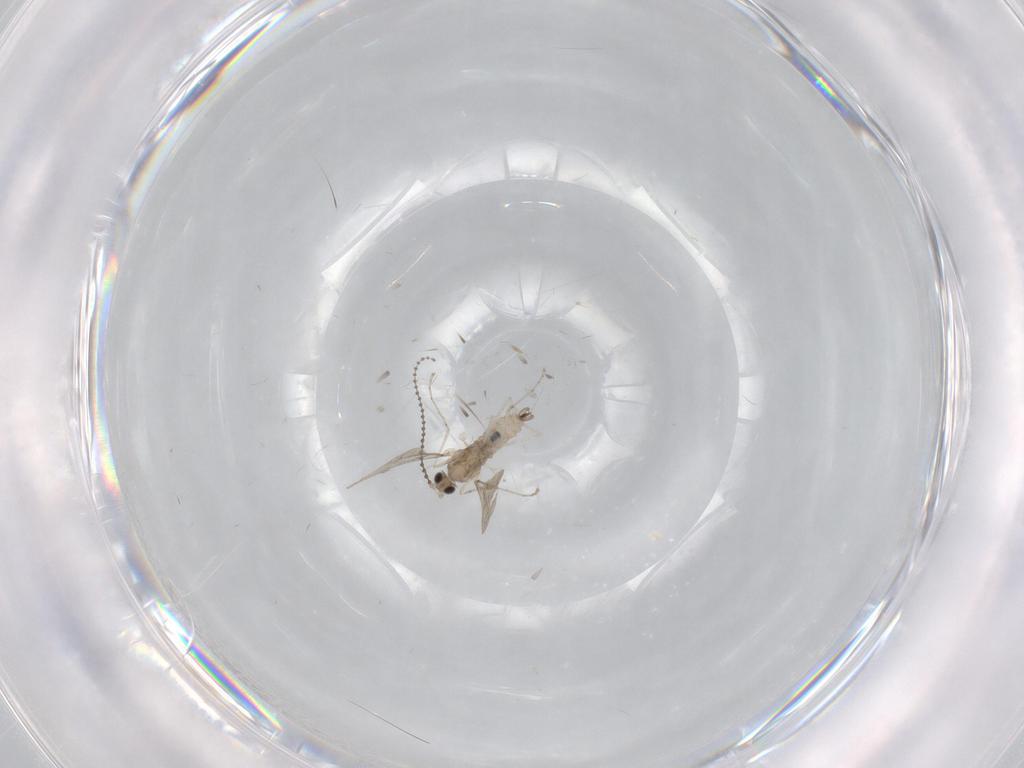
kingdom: Animalia
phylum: Arthropoda
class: Insecta
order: Diptera
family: Cecidomyiidae
